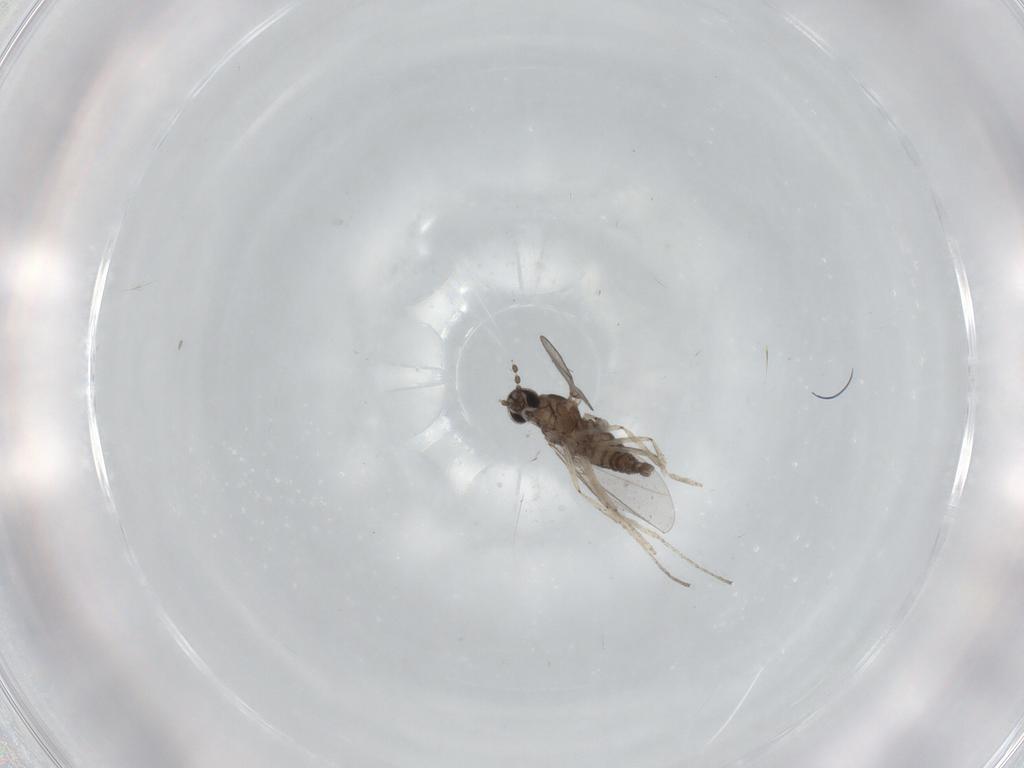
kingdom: Animalia
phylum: Arthropoda
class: Insecta
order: Diptera
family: Cecidomyiidae
